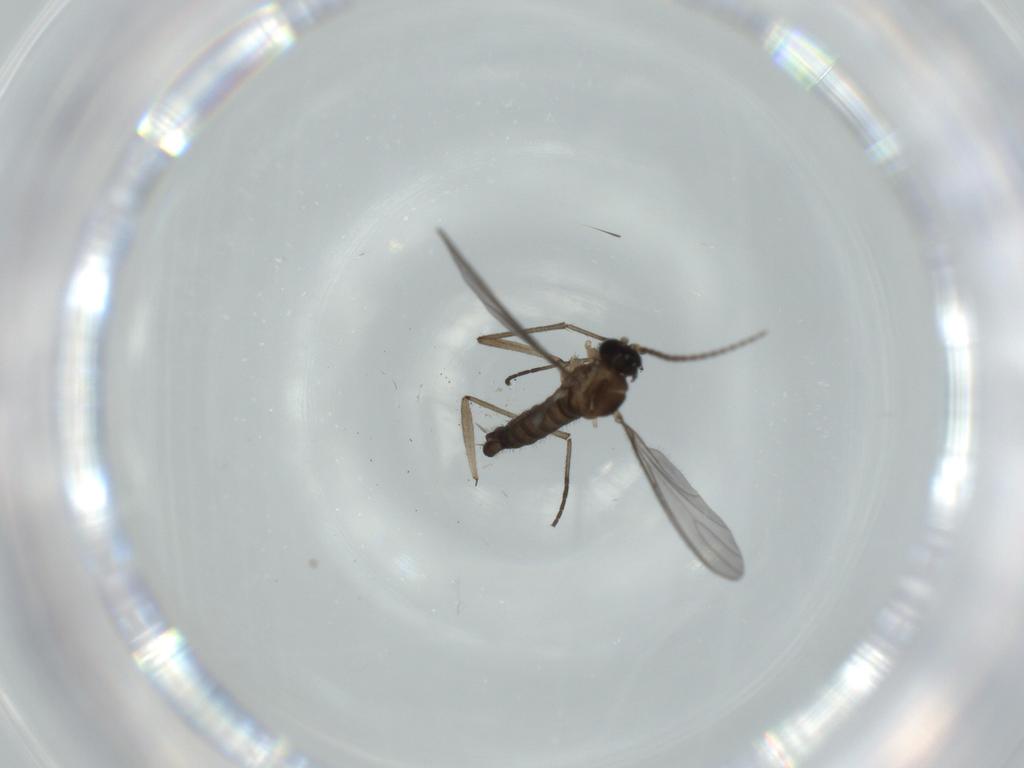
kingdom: Animalia
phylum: Arthropoda
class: Insecta
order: Diptera
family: Sciaridae
